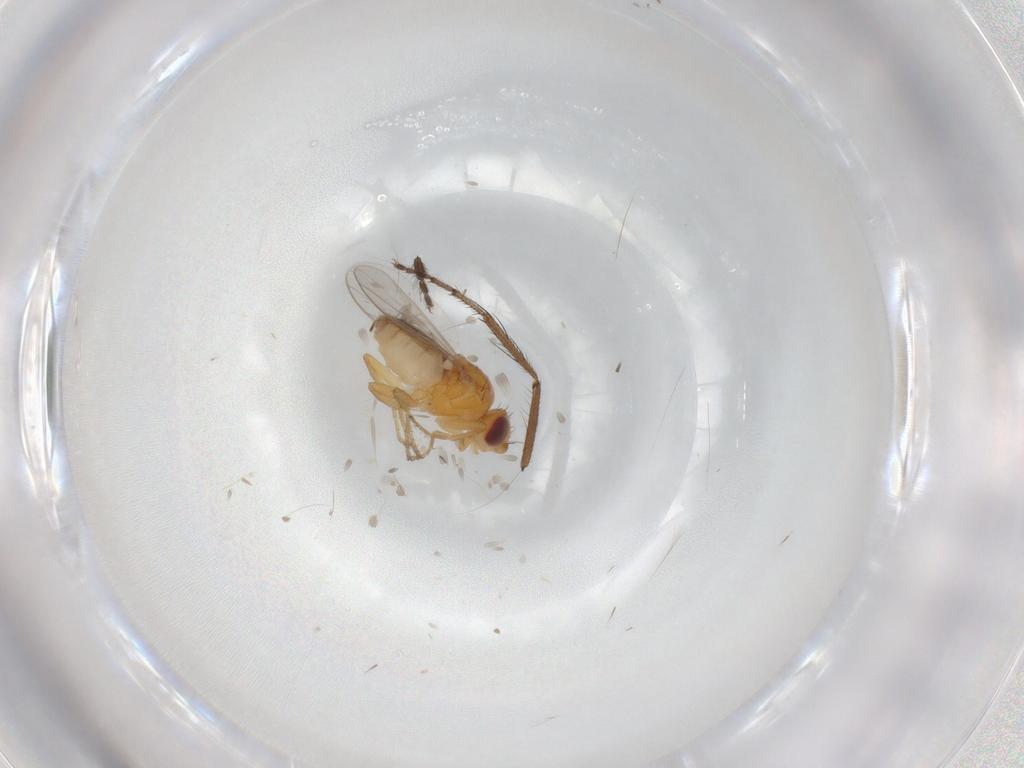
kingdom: Animalia
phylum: Arthropoda
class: Insecta
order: Diptera
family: Chloropidae
